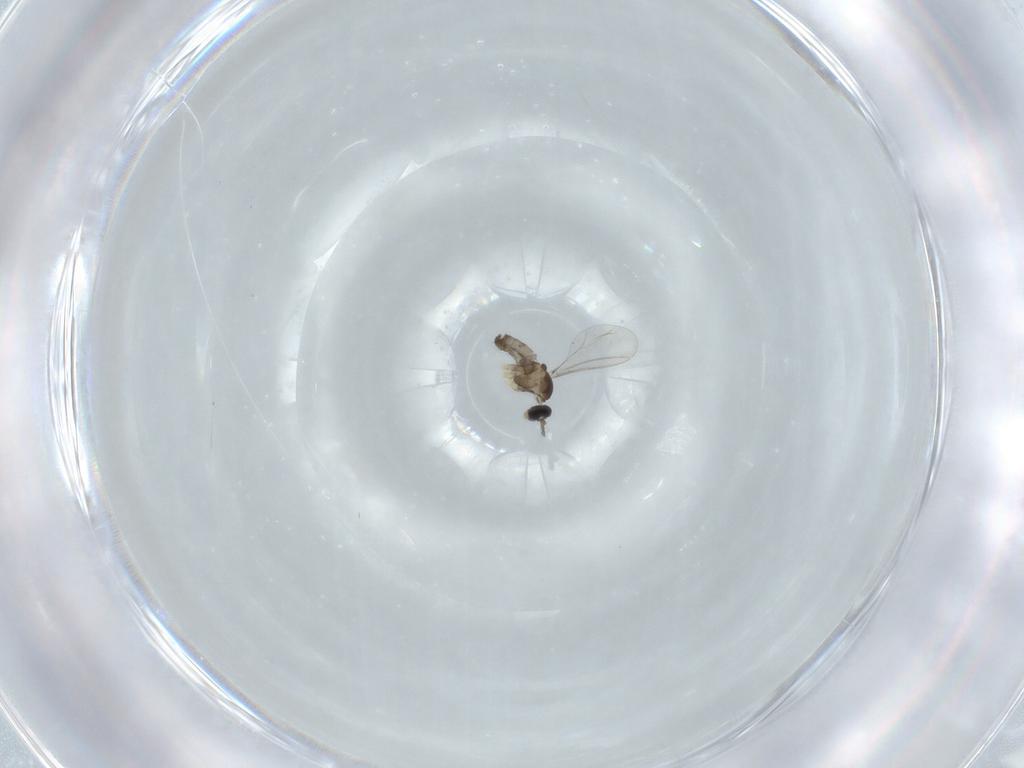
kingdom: Animalia
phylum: Arthropoda
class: Insecta
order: Diptera
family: Cecidomyiidae
